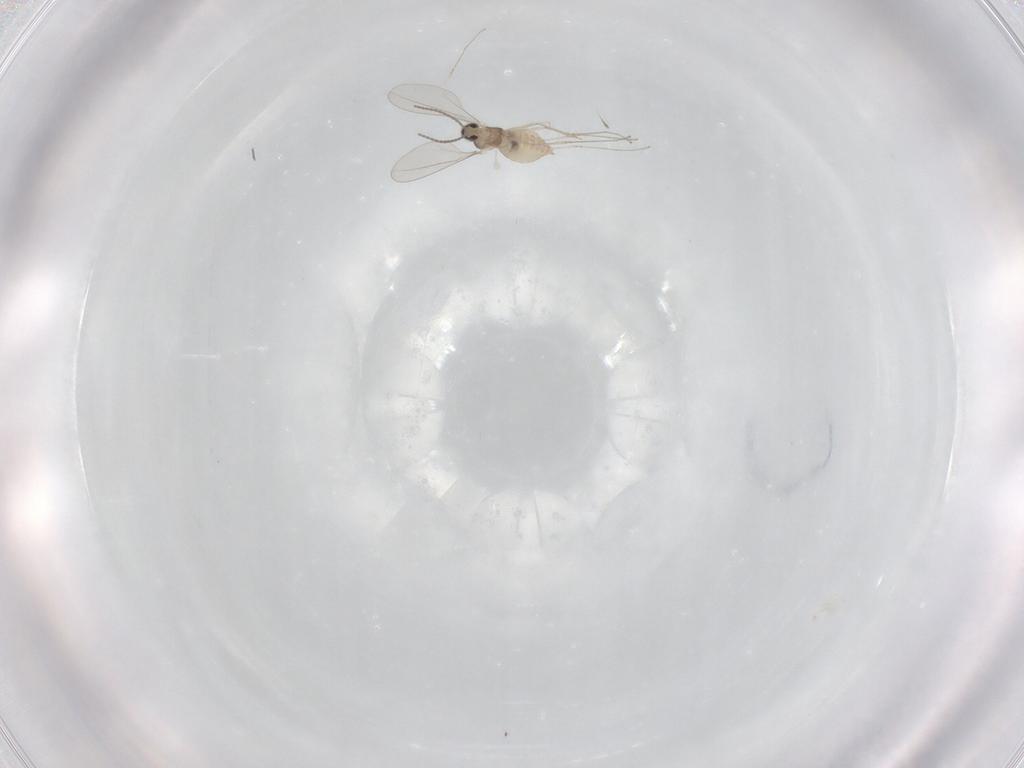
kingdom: Animalia
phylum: Arthropoda
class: Insecta
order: Diptera
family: Cecidomyiidae
